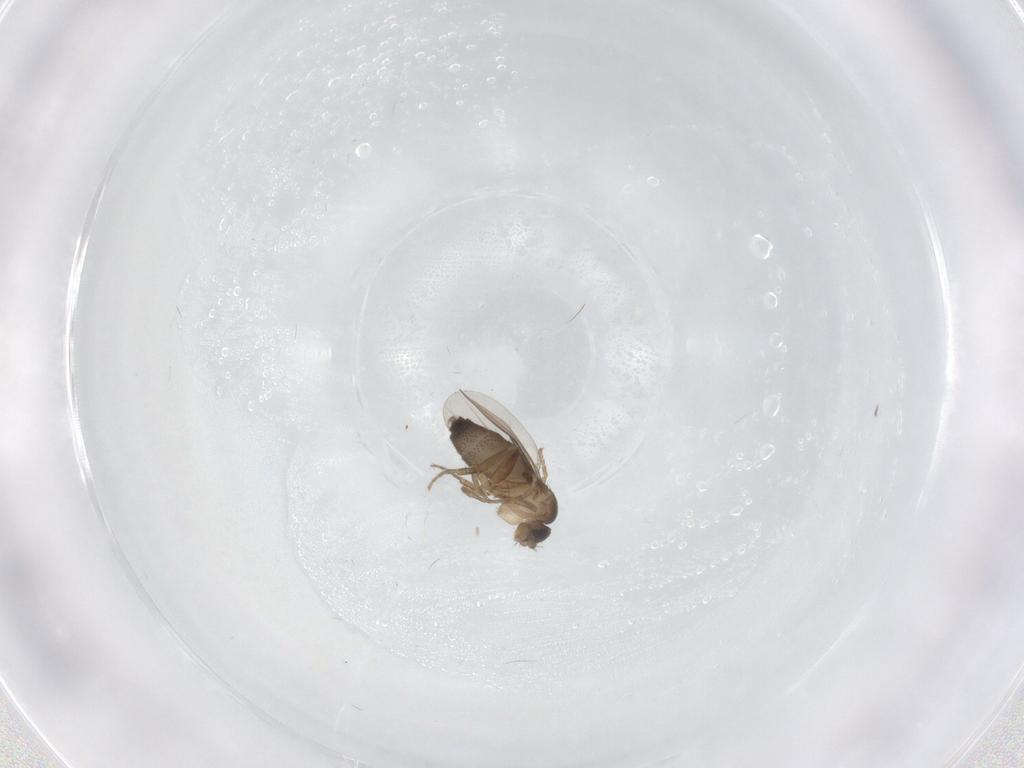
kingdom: Animalia
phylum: Arthropoda
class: Insecta
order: Diptera
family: Phoridae
